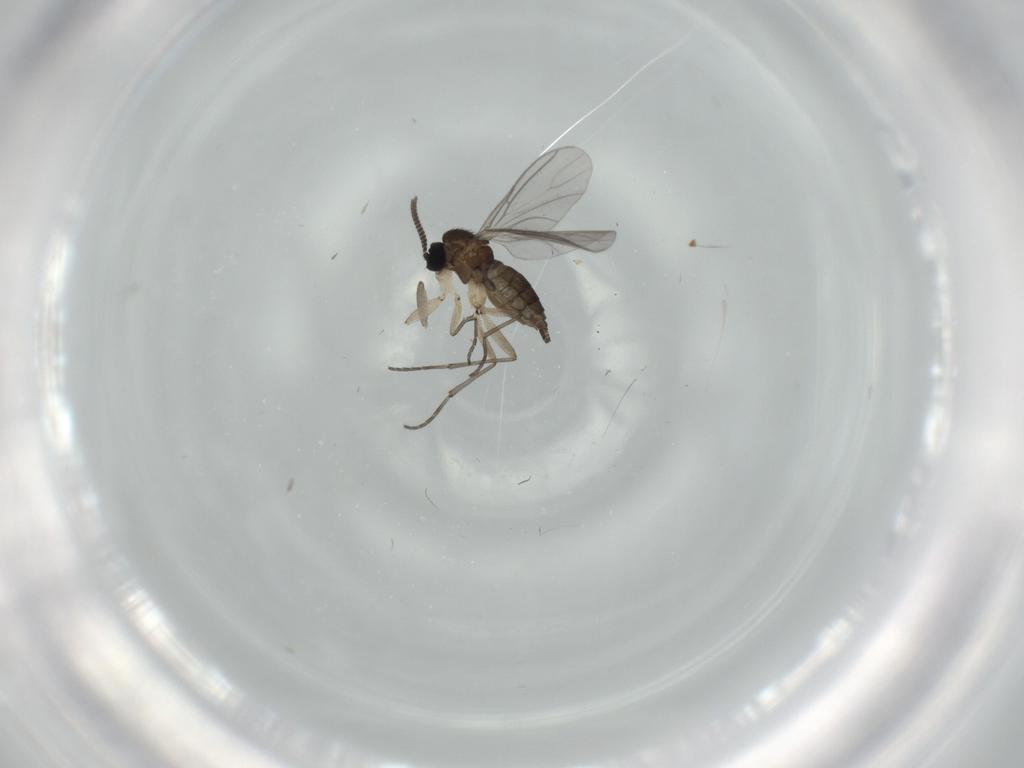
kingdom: Animalia
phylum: Arthropoda
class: Insecta
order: Diptera
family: Sciaridae
